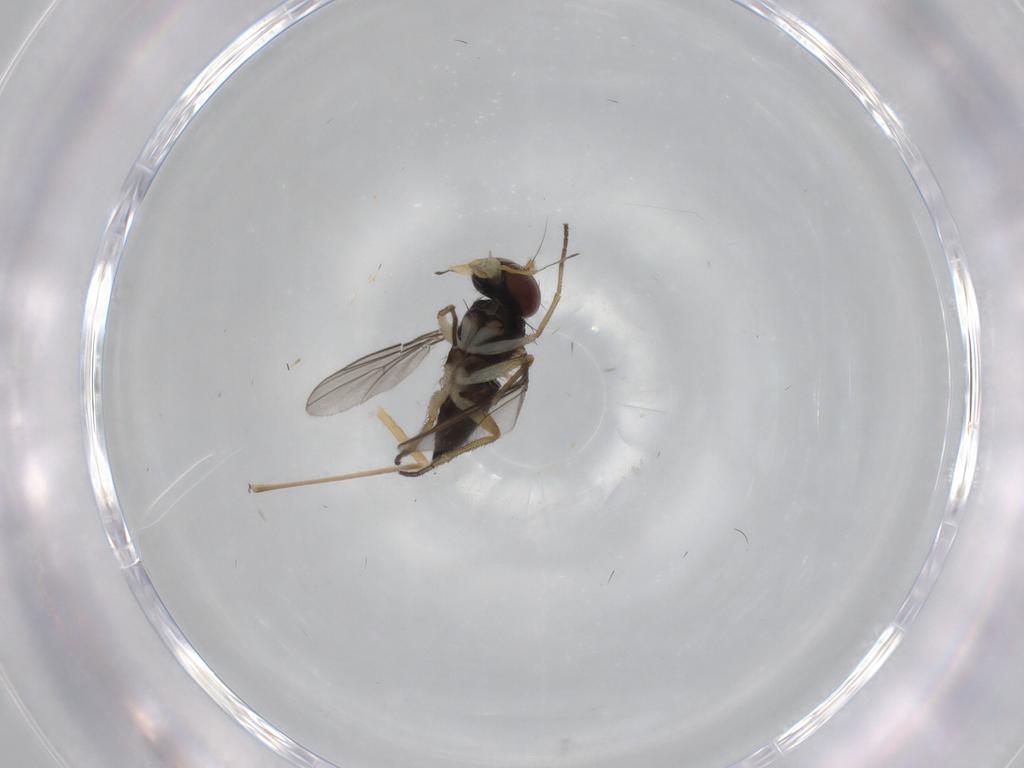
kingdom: Animalia
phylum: Arthropoda
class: Insecta
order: Diptera
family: Dolichopodidae
